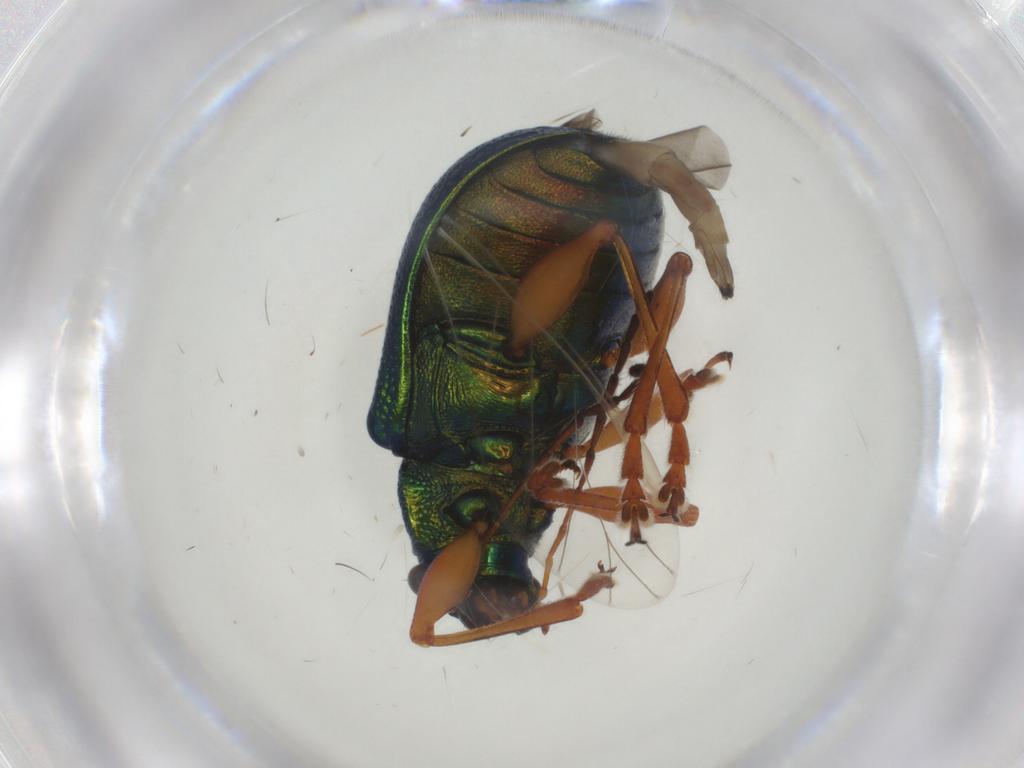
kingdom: Animalia
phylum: Arthropoda
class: Insecta
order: Coleoptera
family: Chrysomelidae
